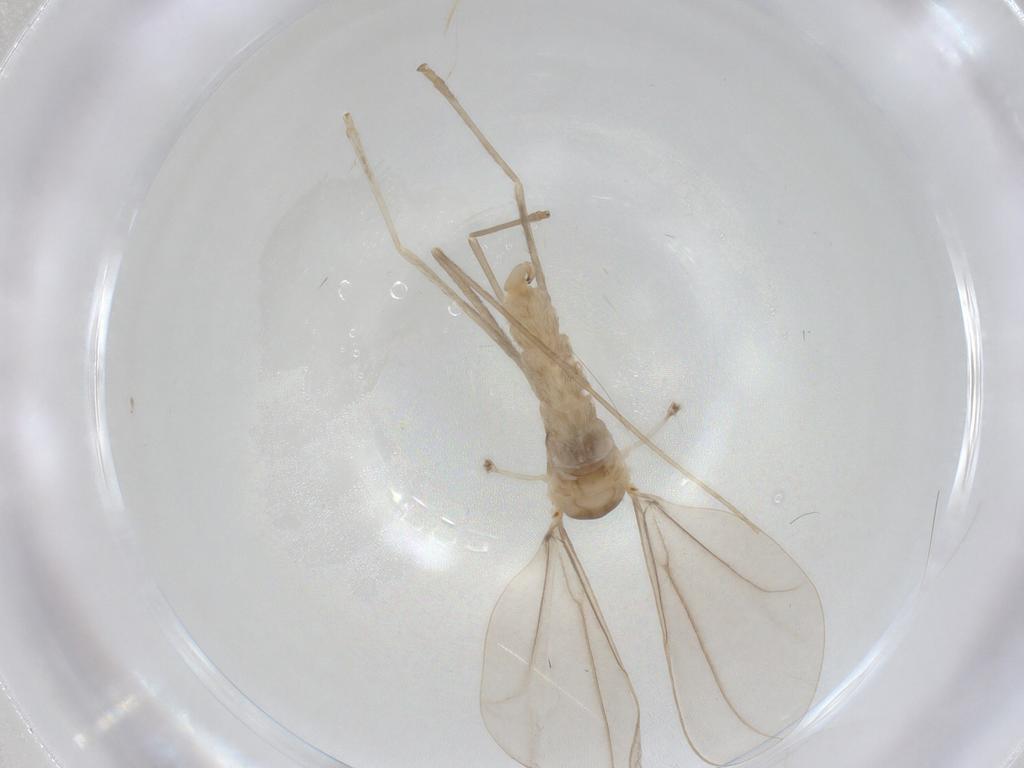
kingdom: Animalia
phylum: Arthropoda
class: Insecta
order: Diptera
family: Cecidomyiidae
